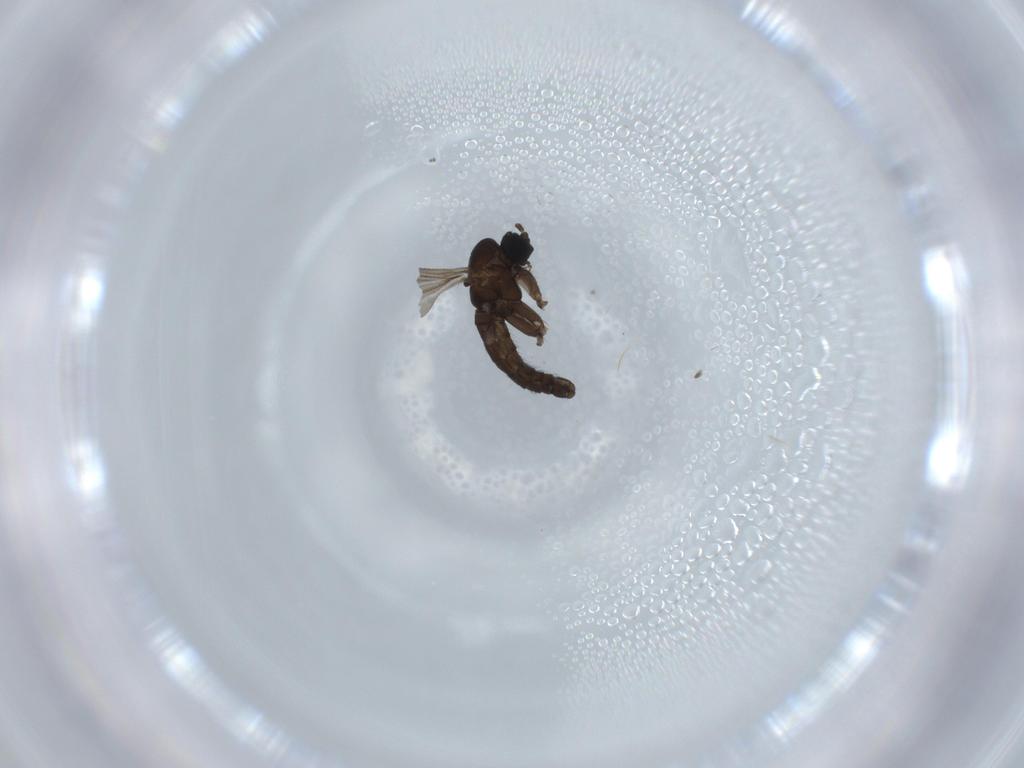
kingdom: Animalia
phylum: Arthropoda
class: Insecta
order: Diptera
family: Sciaridae
